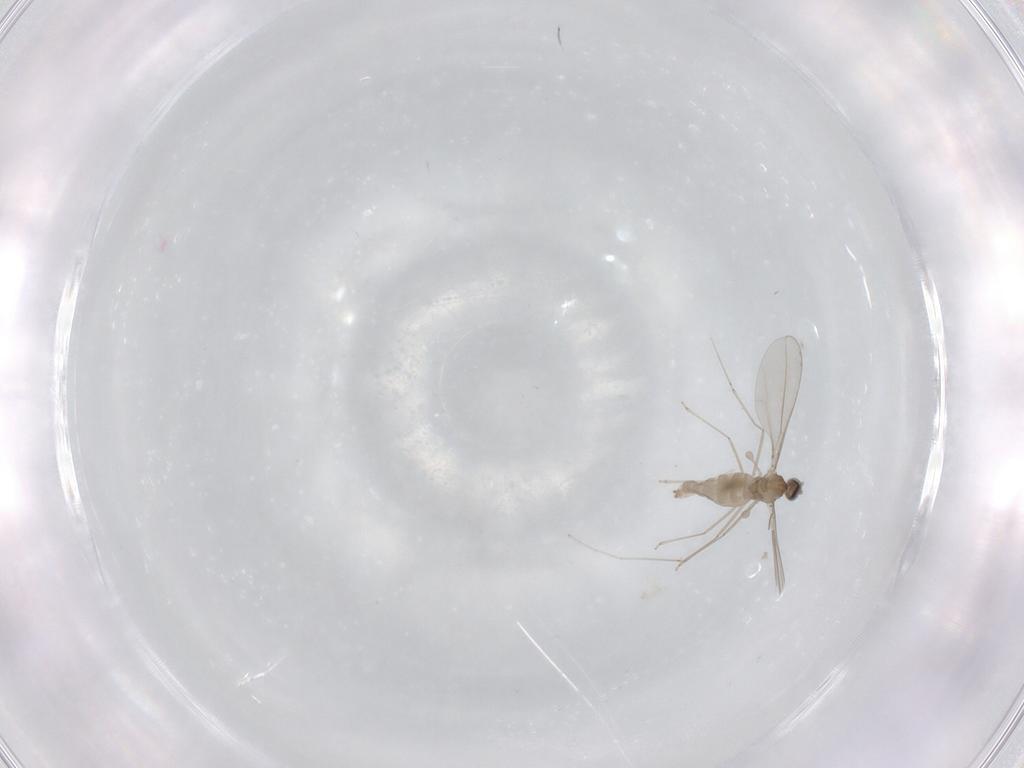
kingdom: Animalia
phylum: Arthropoda
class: Insecta
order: Diptera
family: Cecidomyiidae
